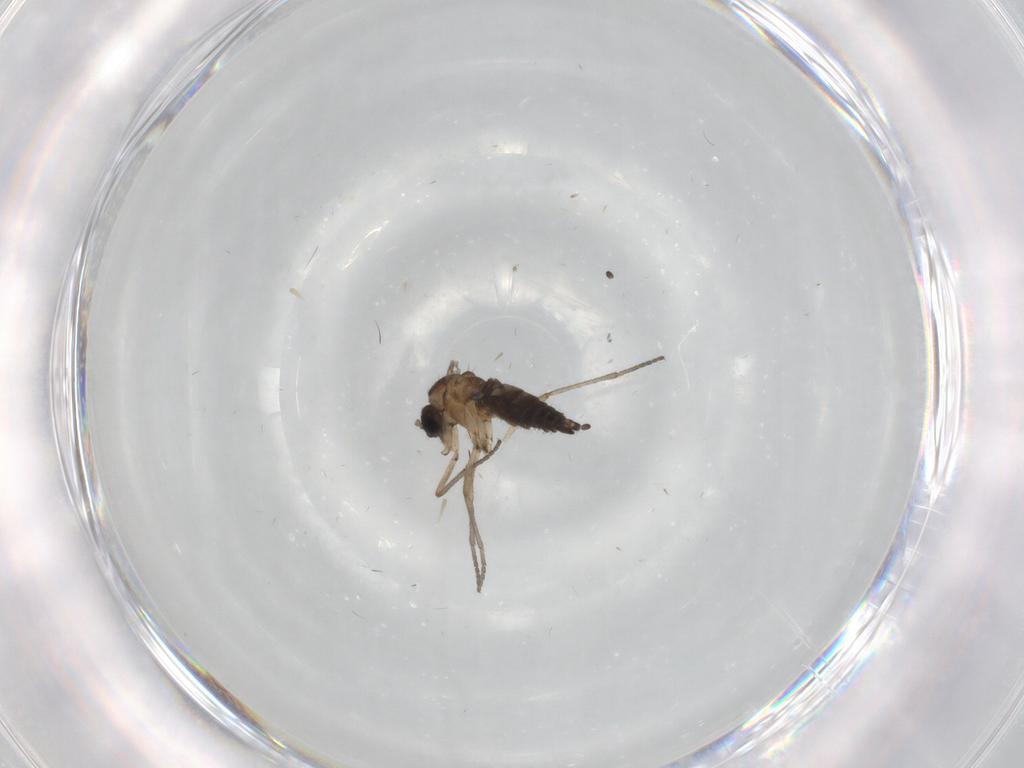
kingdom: Animalia
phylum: Arthropoda
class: Insecta
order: Diptera
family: Sciaridae
